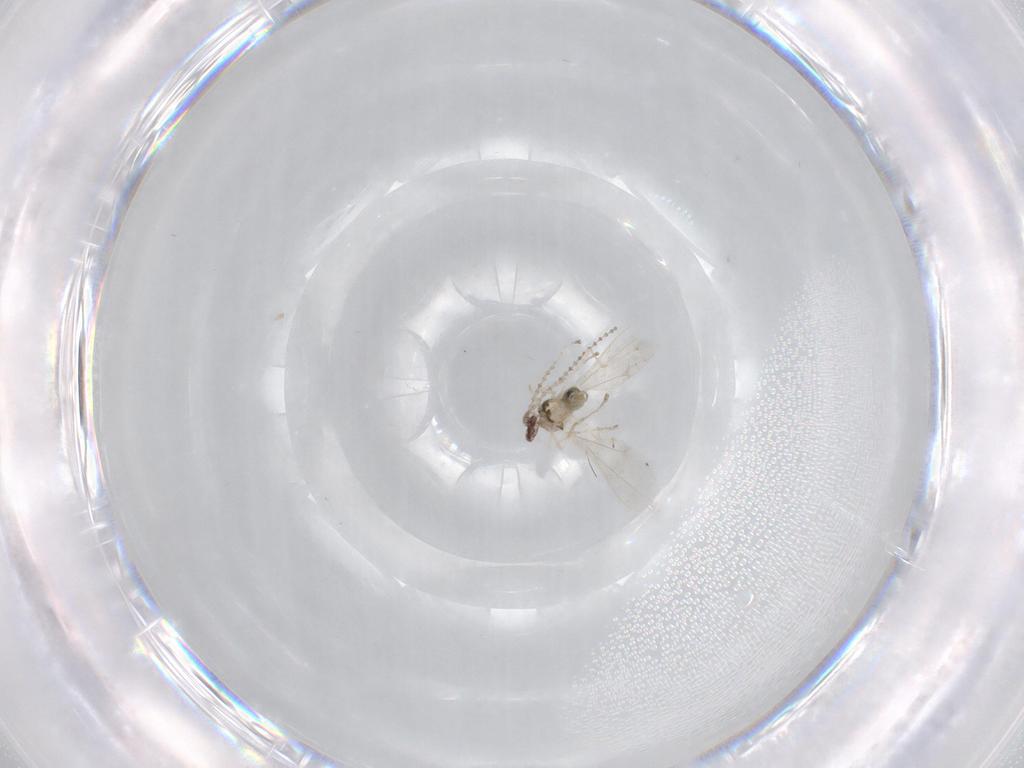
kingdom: Animalia
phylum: Arthropoda
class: Insecta
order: Diptera
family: Cecidomyiidae
